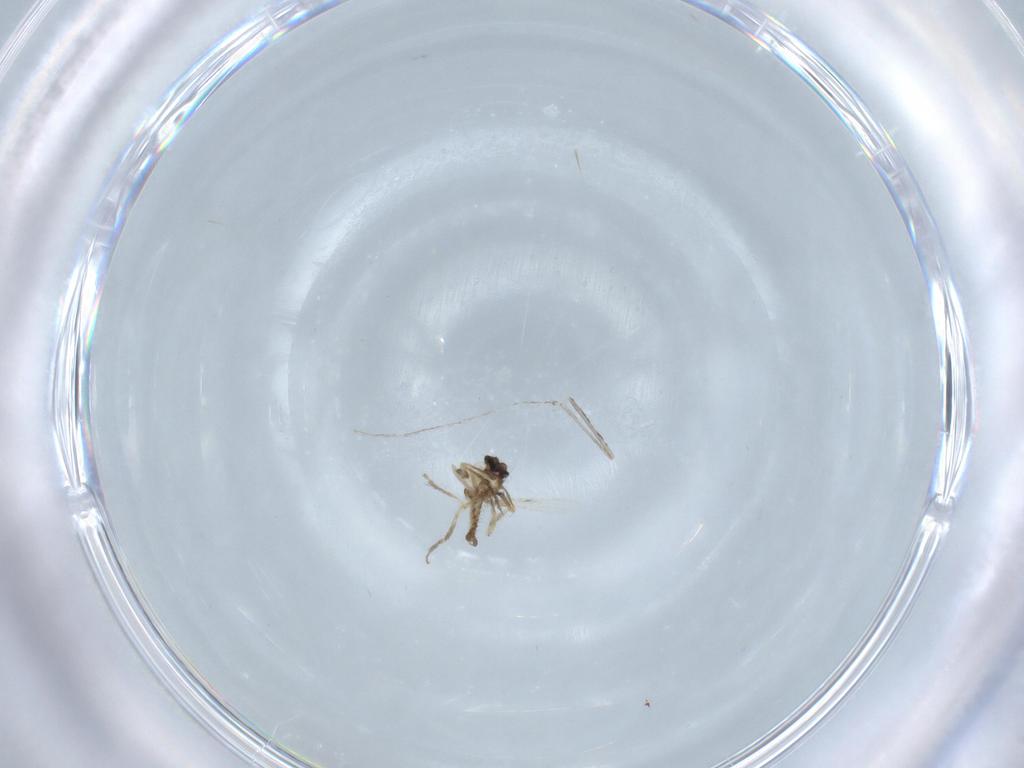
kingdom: Animalia
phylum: Arthropoda
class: Insecta
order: Diptera
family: Ceratopogonidae
